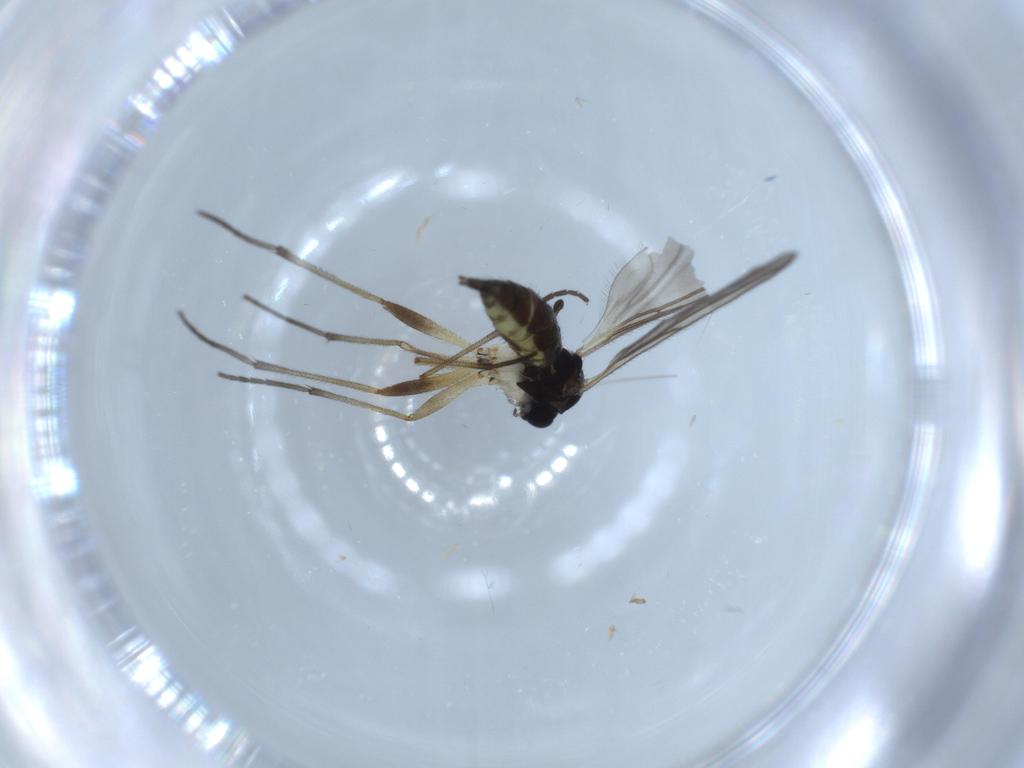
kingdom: Animalia
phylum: Arthropoda
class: Insecta
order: Diptera
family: Sciaridae
